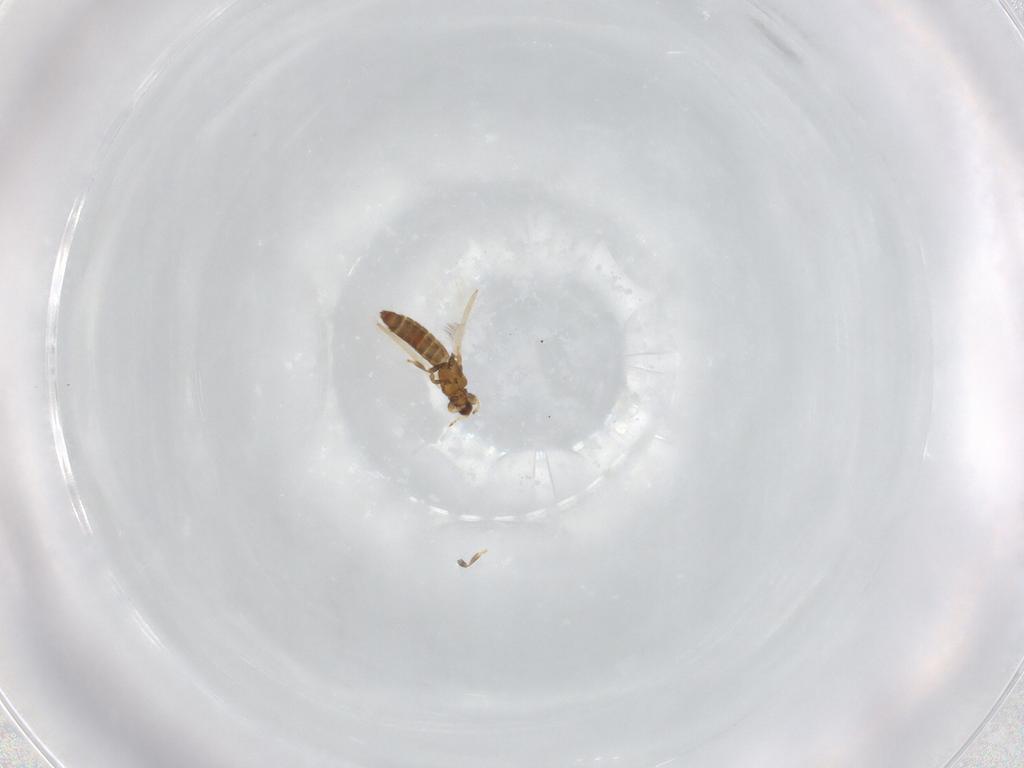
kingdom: Animalia
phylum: Arthropoda
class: Insecta
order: Thysanoptera
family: Thripidae
